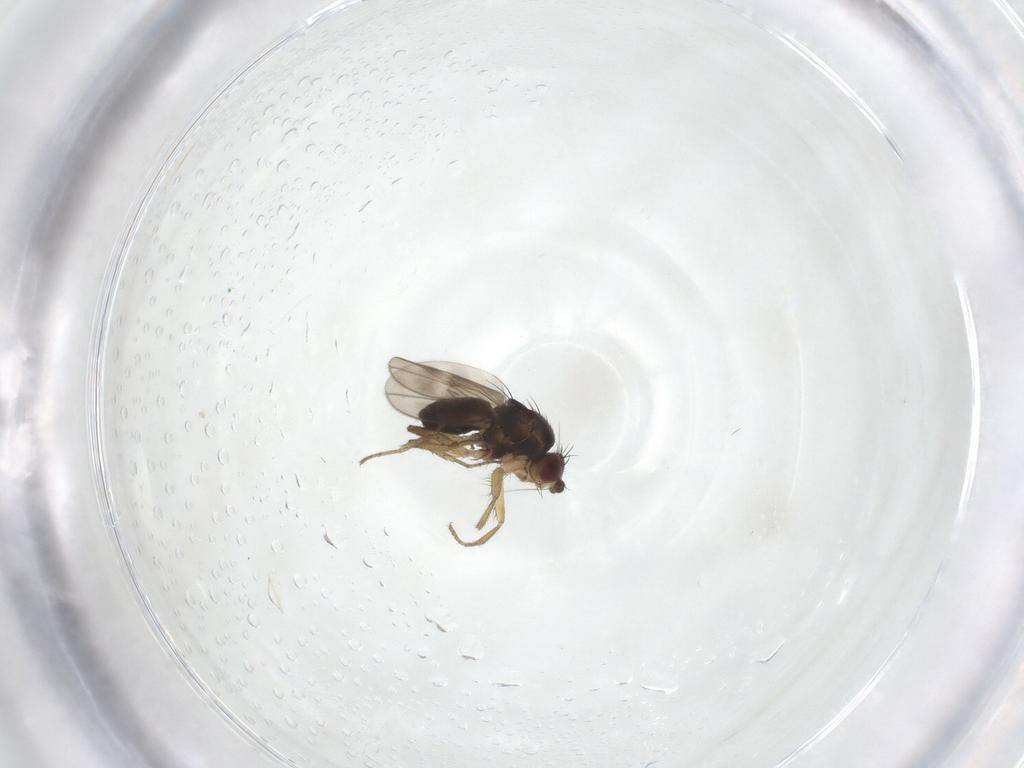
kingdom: Animalia
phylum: Arthropoda
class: Insecta
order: Diptera
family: Sphaeroceridae
